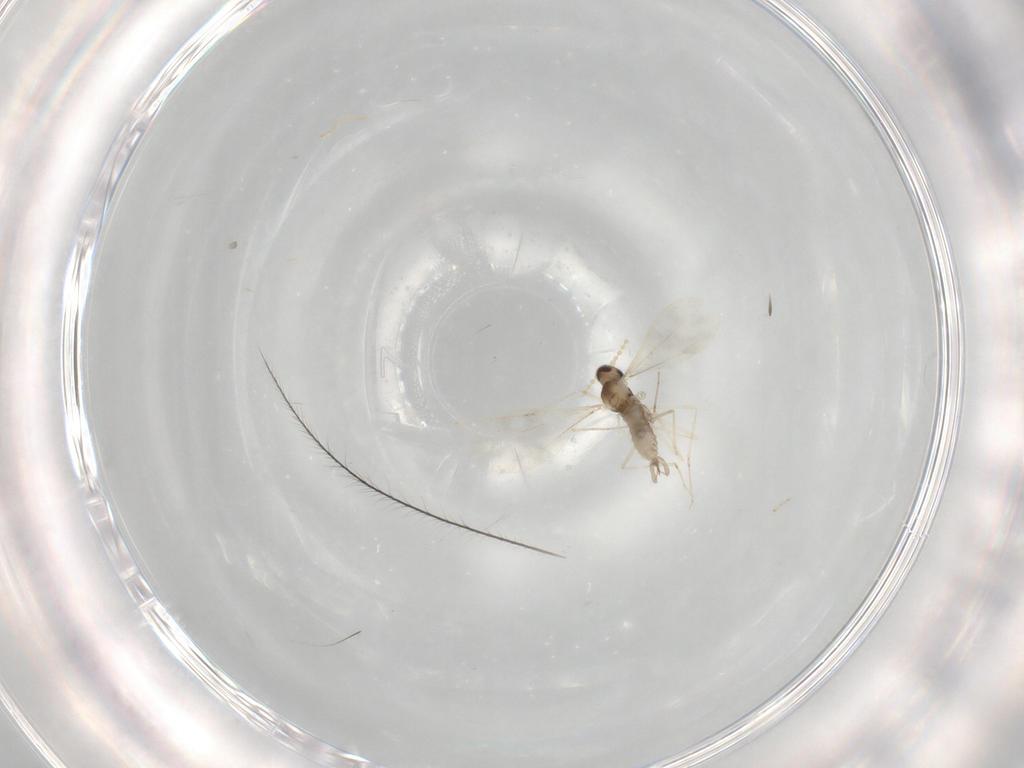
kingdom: Animalia
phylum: Arthropoda
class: Insecta
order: Diptera
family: Cecidomyiidae
